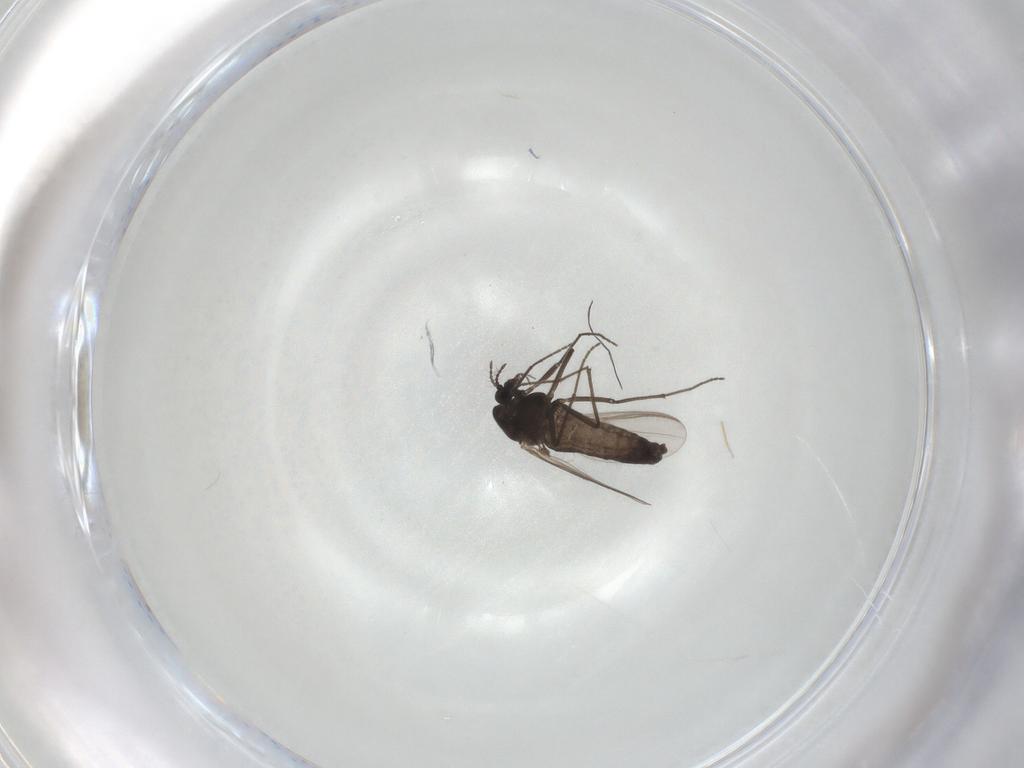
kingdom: Animalia
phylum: Arthropoda
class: Insecta
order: Diptera
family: Chironomidae
